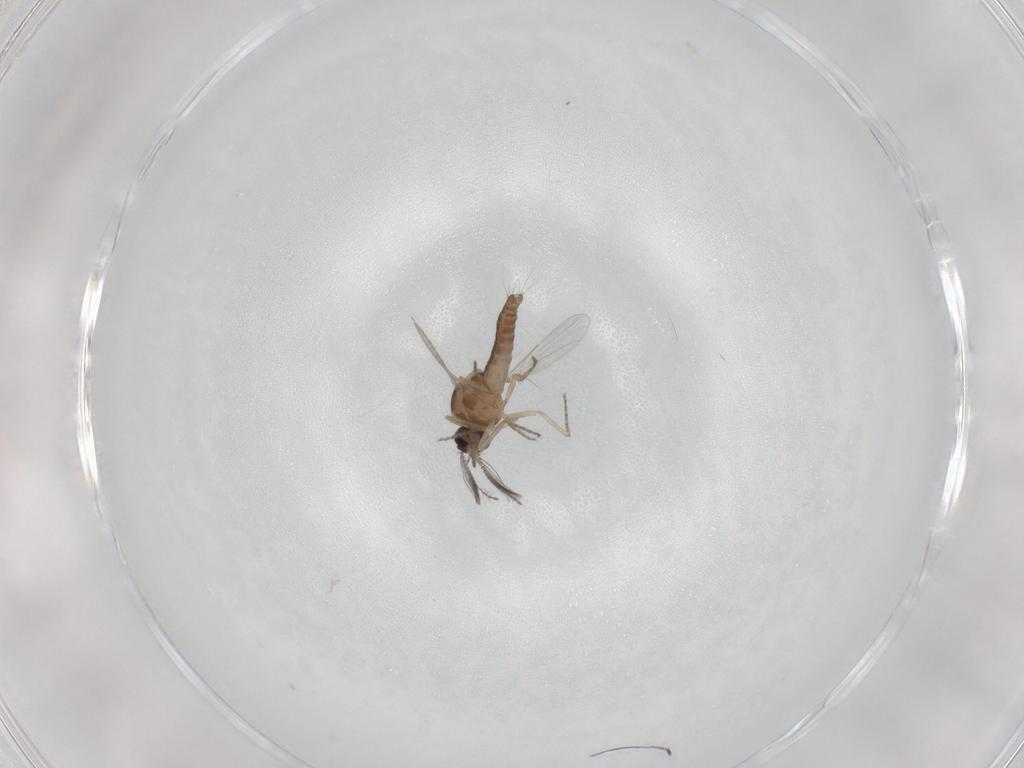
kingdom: Animalia
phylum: Arthropoda
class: Insecta
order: Diptera
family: Ceratopogonidae
